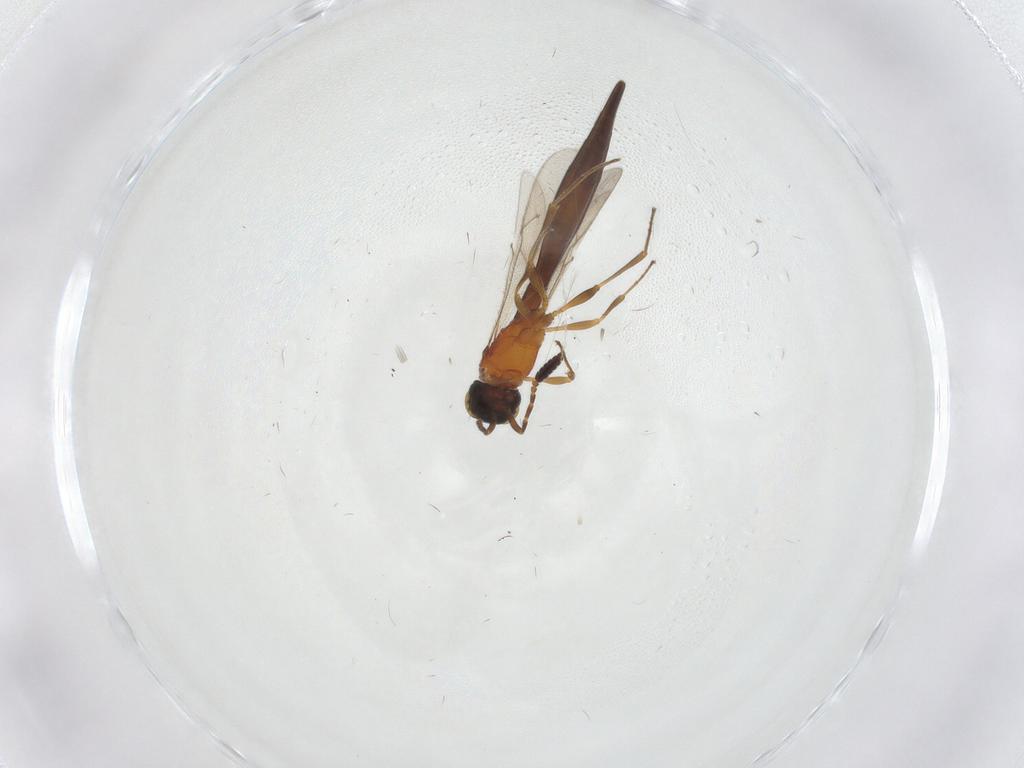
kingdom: Animalia
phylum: Arthropoda
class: Insecta
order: Hymenoptera
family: Scelionidae
